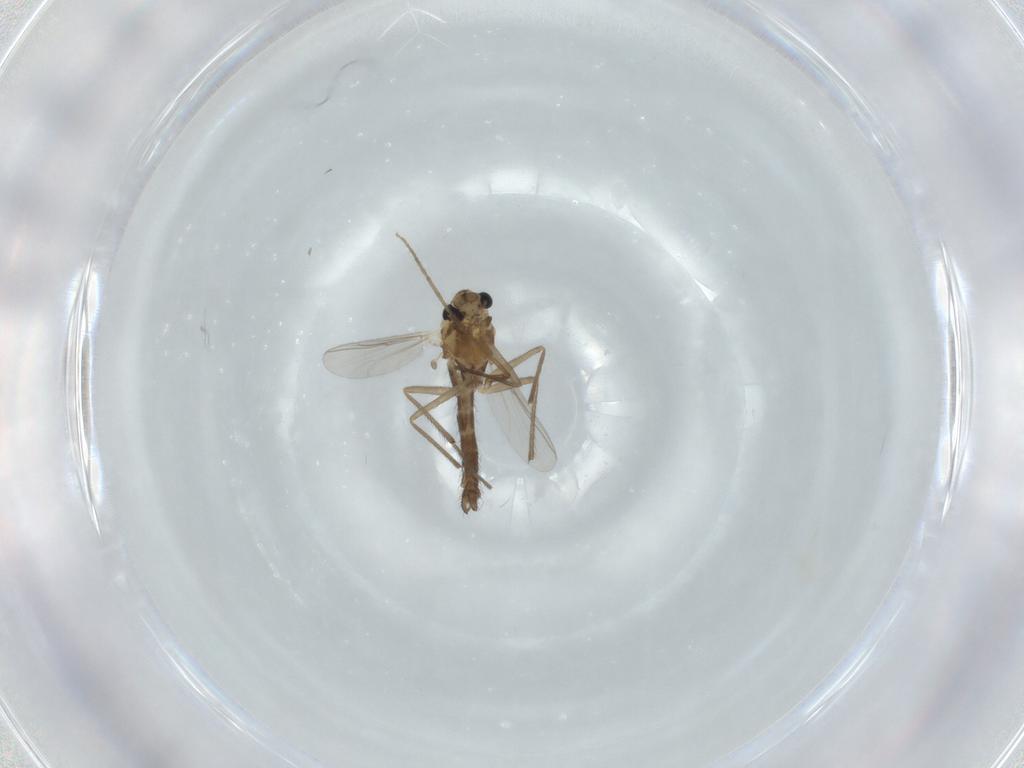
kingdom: Animalia
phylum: Arthropoda
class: Insecta
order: Diptera
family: Chironomidae
